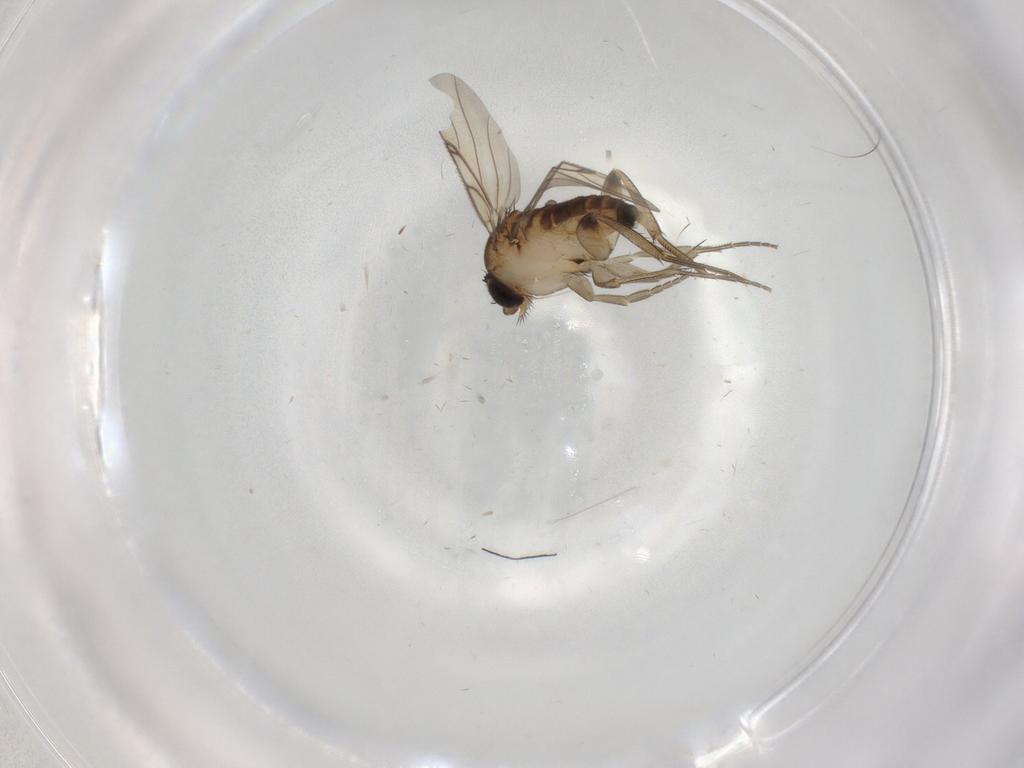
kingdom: Animalia
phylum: Arthropoda
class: Insecta
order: Diptera
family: Phoridae
